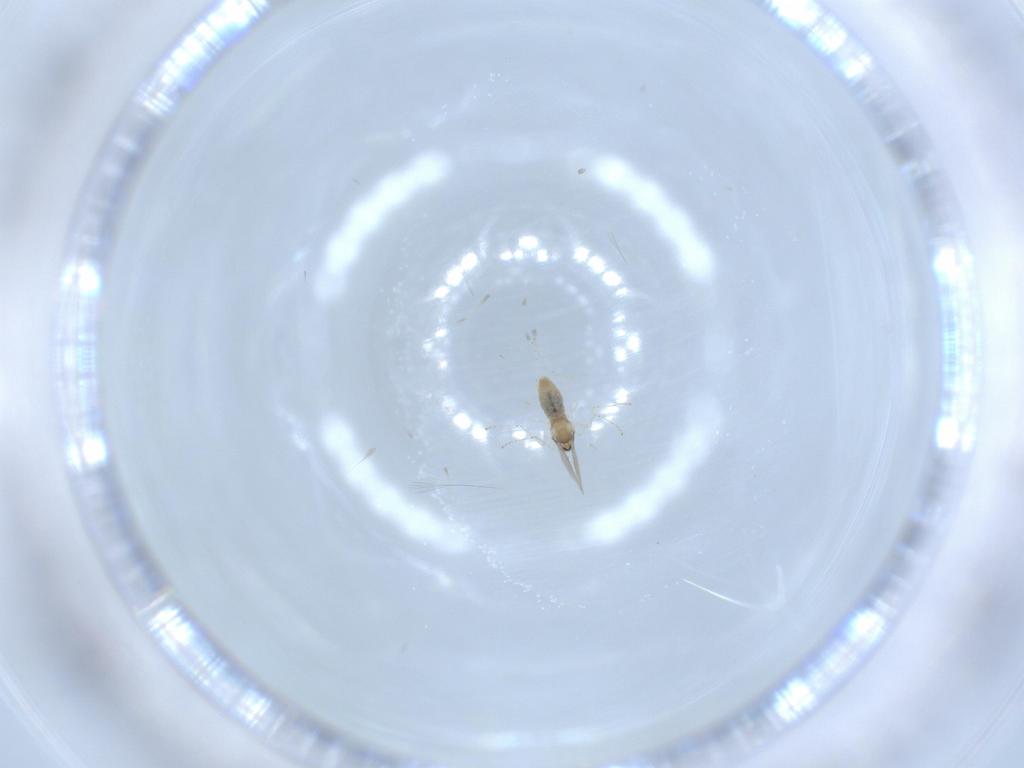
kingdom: Animalia
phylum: Arthropoda
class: Insecta
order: Diptera
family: Cecidomyiidae
